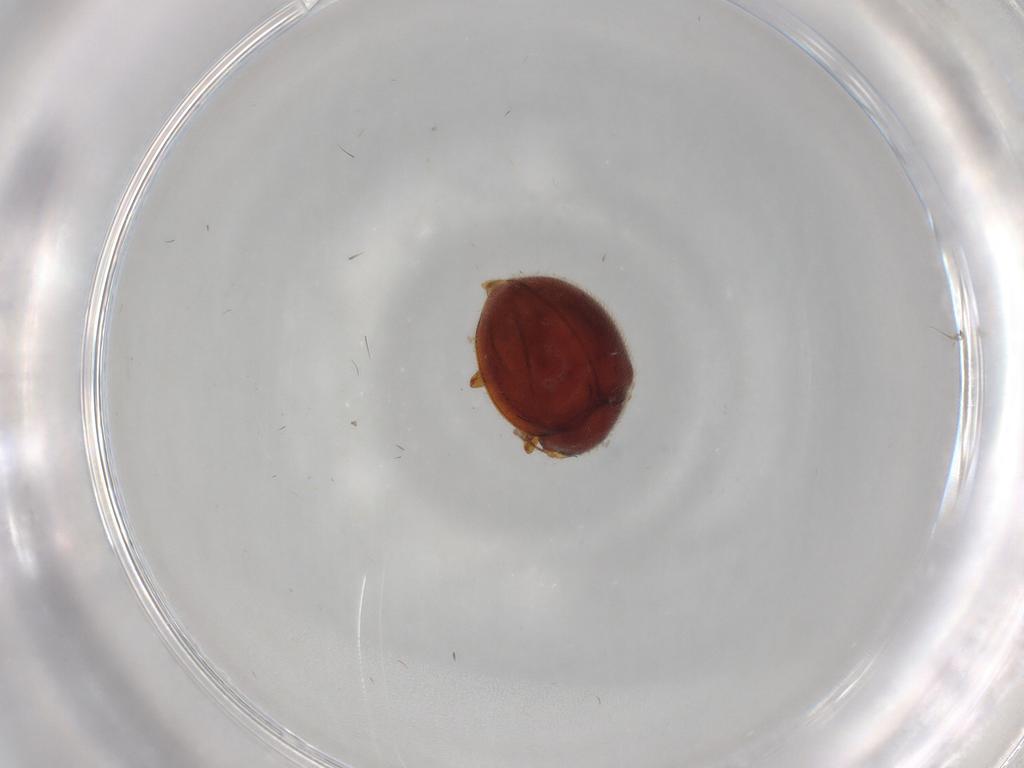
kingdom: Animalia
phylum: Arthropoda
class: Insecta
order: Coleoptera
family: Anamorphidae
